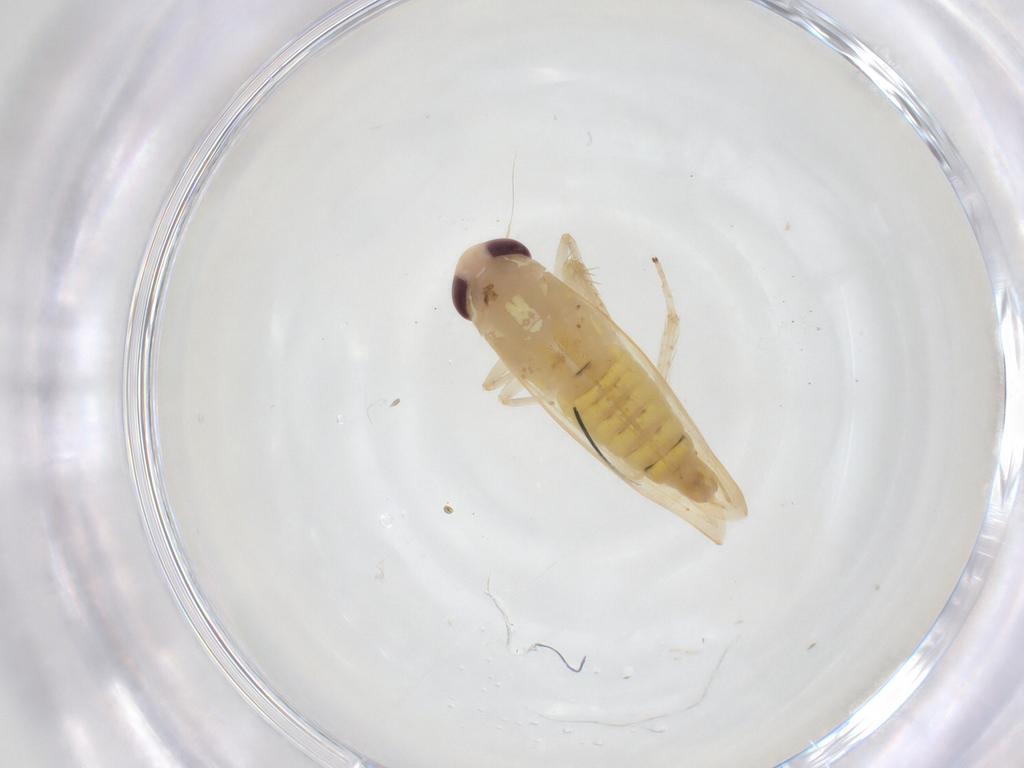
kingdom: Animalia
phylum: Arthropoda
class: Insecta
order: Hemiptera
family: Cicadellidae
